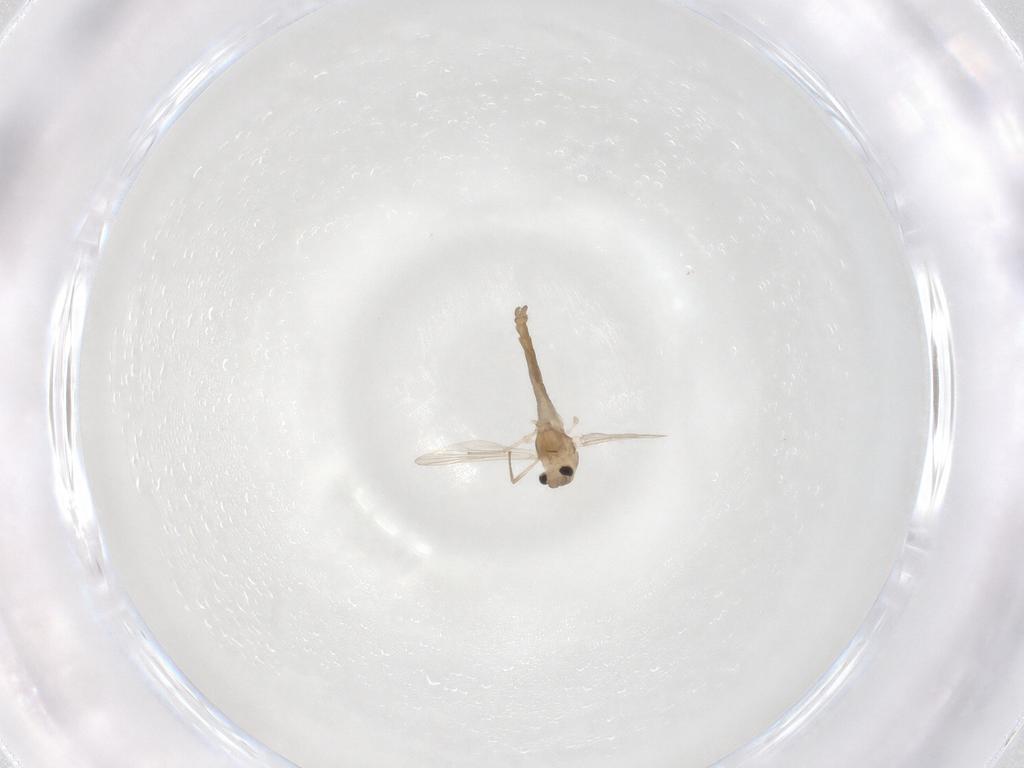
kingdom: Animalia
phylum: Arthropoda
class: Insecta
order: Diptera
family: Chironomidae
